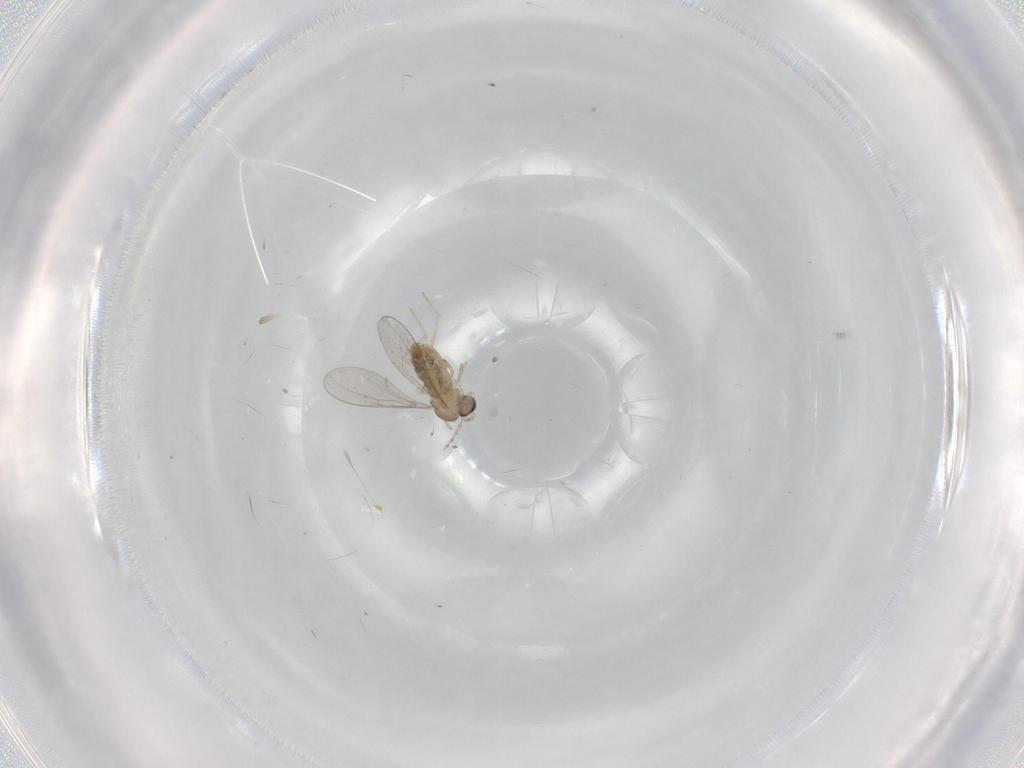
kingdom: Animalia
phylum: Arthropoda
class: Insecta
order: Diptera
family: Cecidomyiidae
